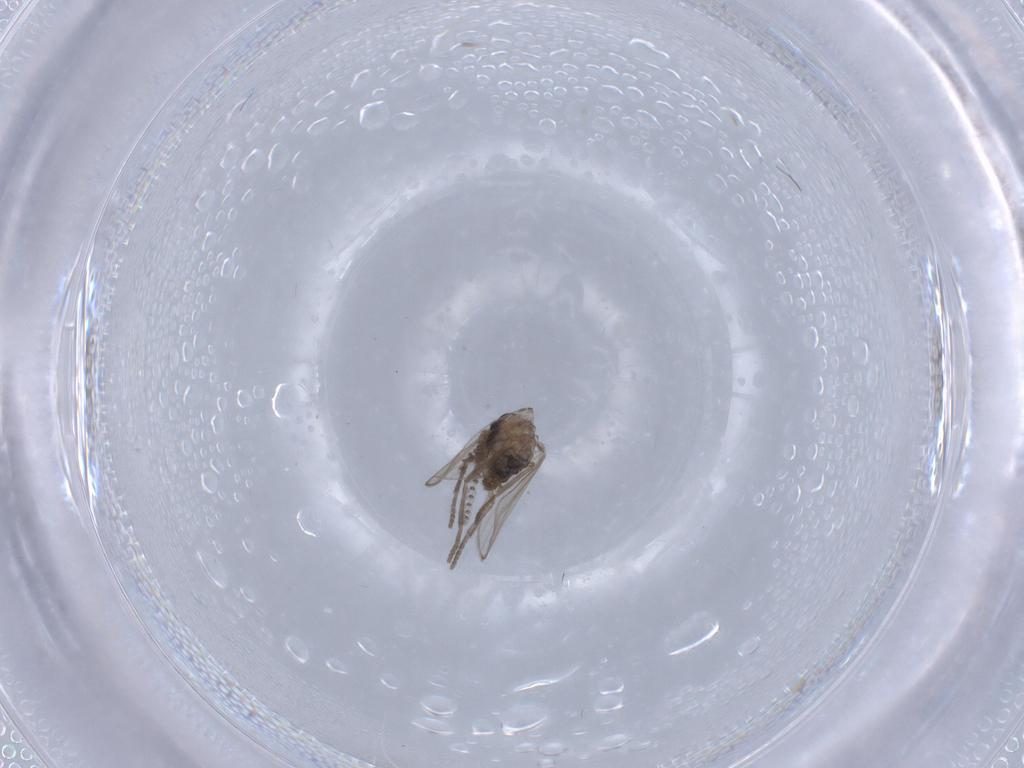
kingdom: Animalia
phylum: Arthropoda
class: Insecta
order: Diptera
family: Psychodidae
